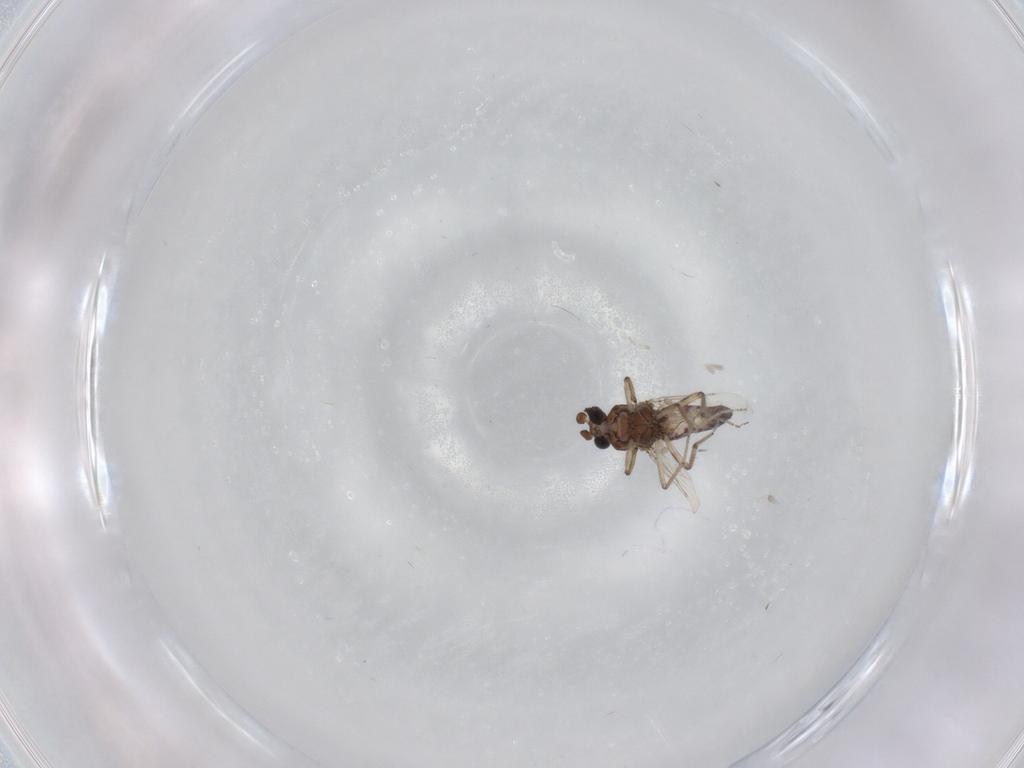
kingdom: Animalia
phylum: Arthropoda
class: Insecta
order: Diptera
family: Ceratopogonidae
